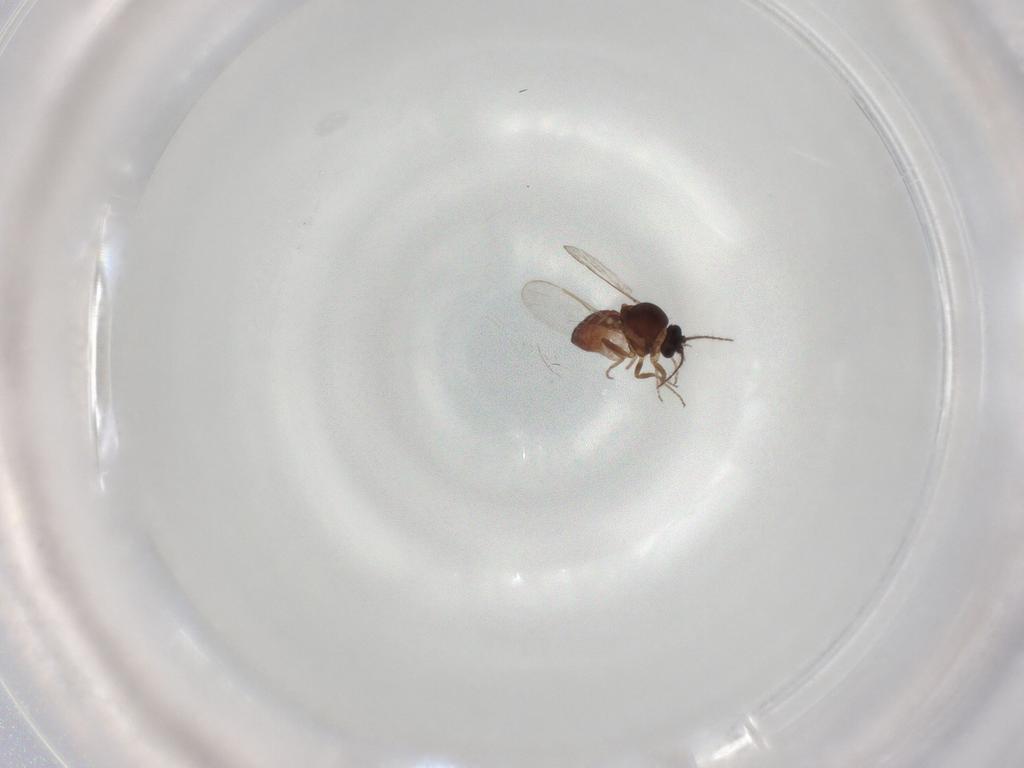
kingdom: Animalia
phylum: Arthropoda
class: Insecta
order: Diptera
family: Ceratopogonidae
